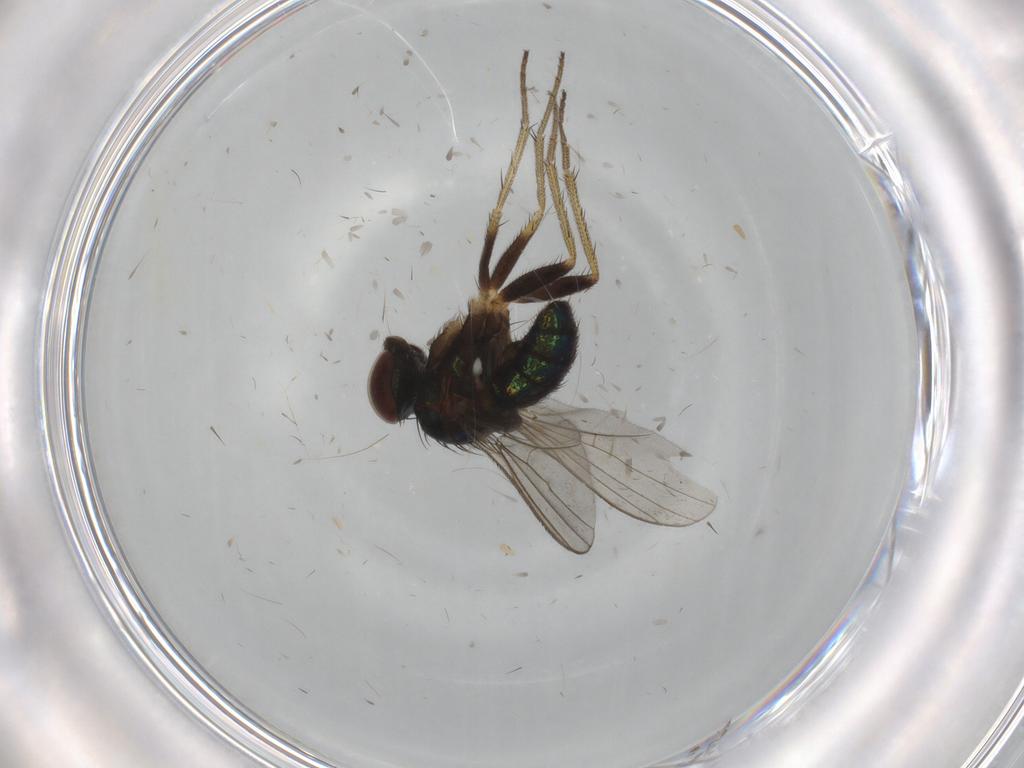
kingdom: Animalia
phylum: Arthropoda
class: Insecta
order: Diptera
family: Dolichopodidae
